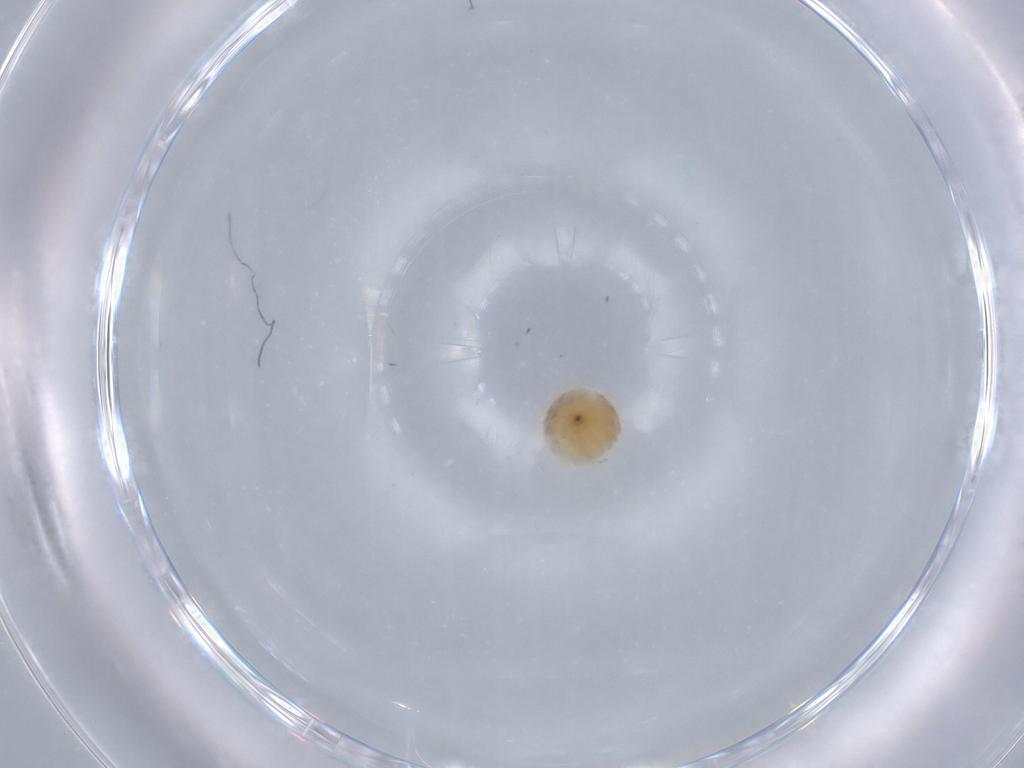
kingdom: Animalia
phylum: Arthropoda
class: Insecta
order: Lepidoptera
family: Noctuidae
